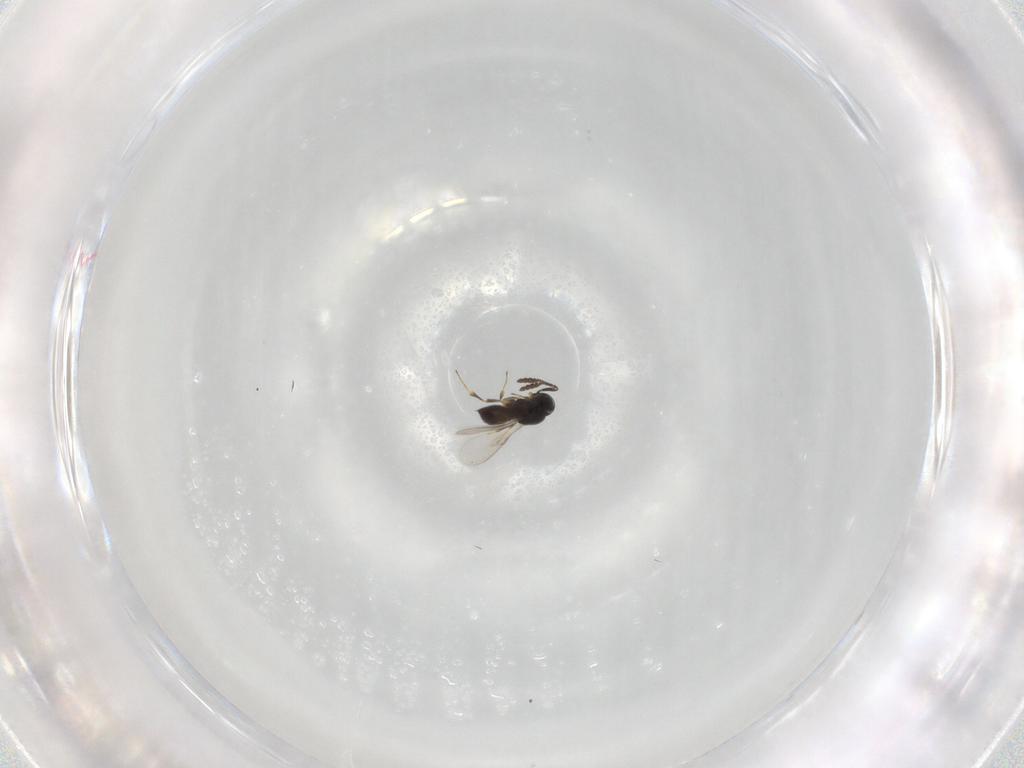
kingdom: Animalia
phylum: Arthropoda
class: Insecta
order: Hymenoptera
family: Scelionidae
